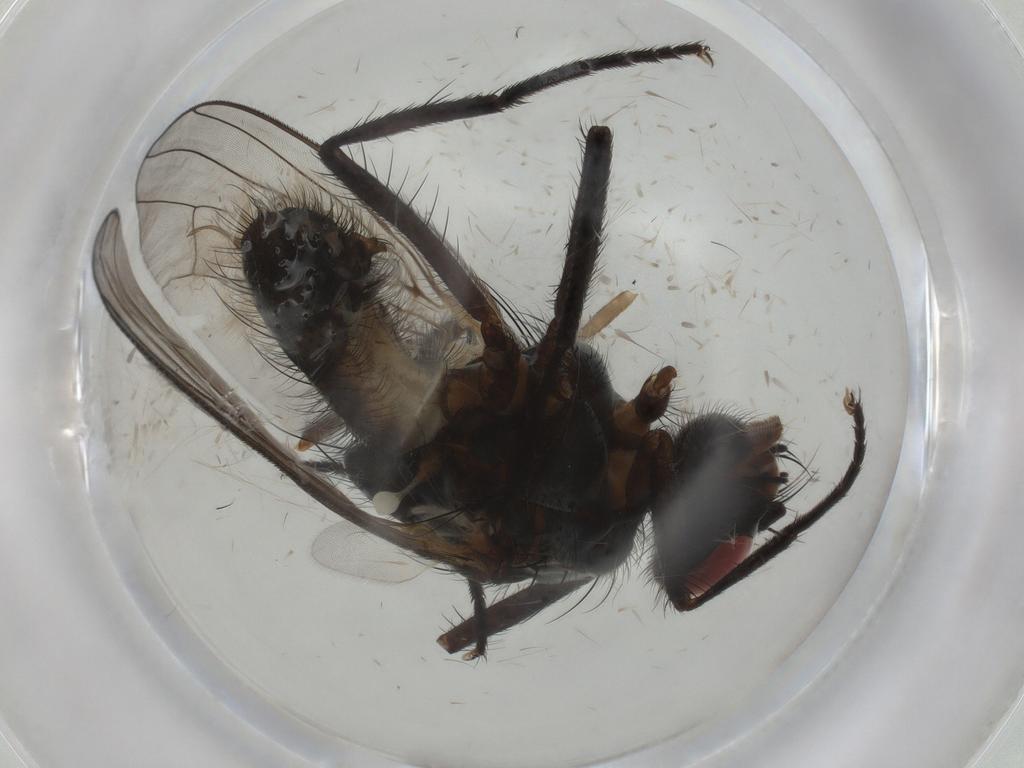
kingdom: Animalia
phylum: Arthropoda
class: Insecta
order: Diptera
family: Anthomyiidae
